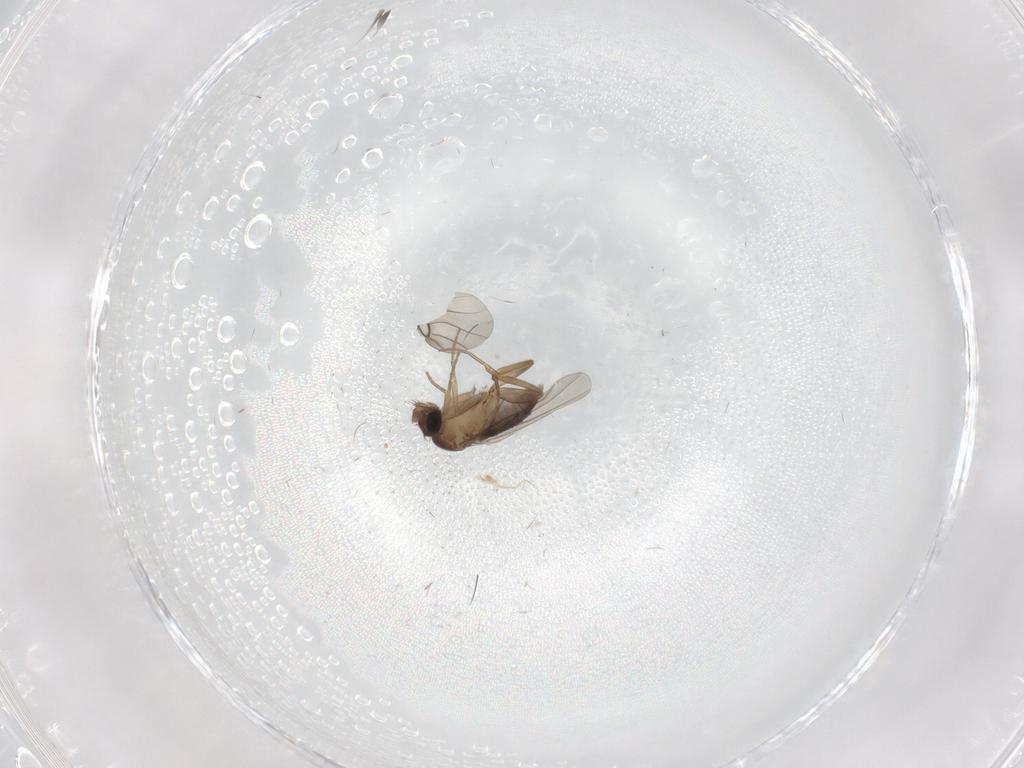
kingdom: Animalia
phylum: Arthropoda
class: Insecta
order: Diptera
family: Phoridae
